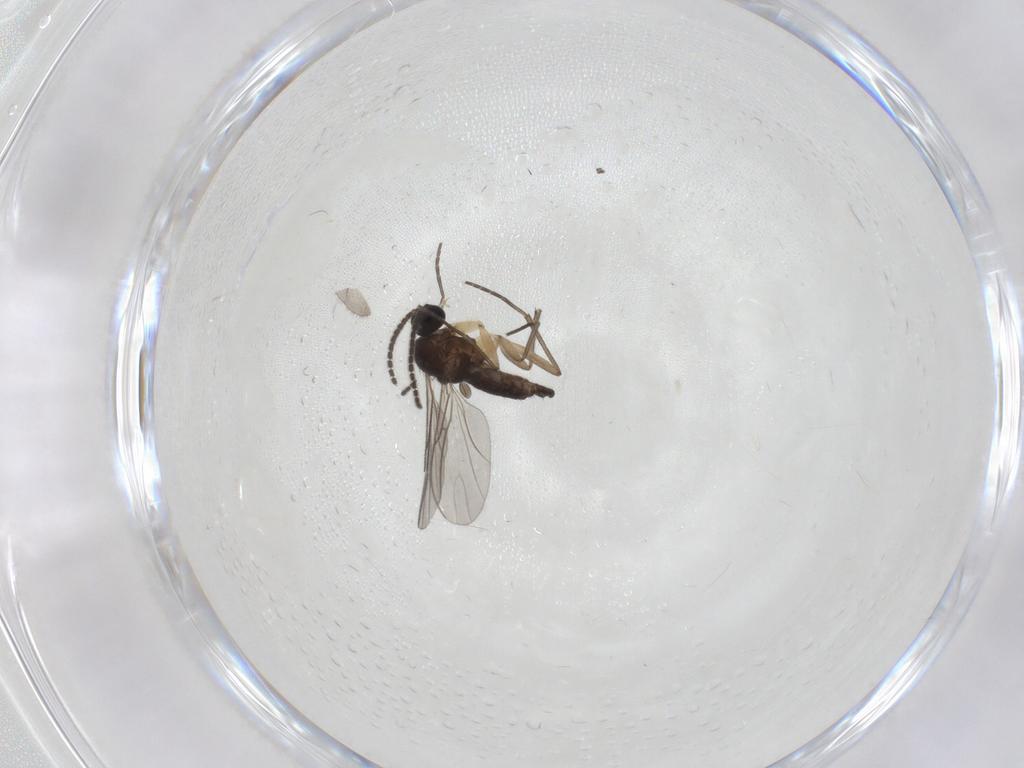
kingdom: Animalia
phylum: Arthropoda
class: Insecta
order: Diptera
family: Sciaridae
